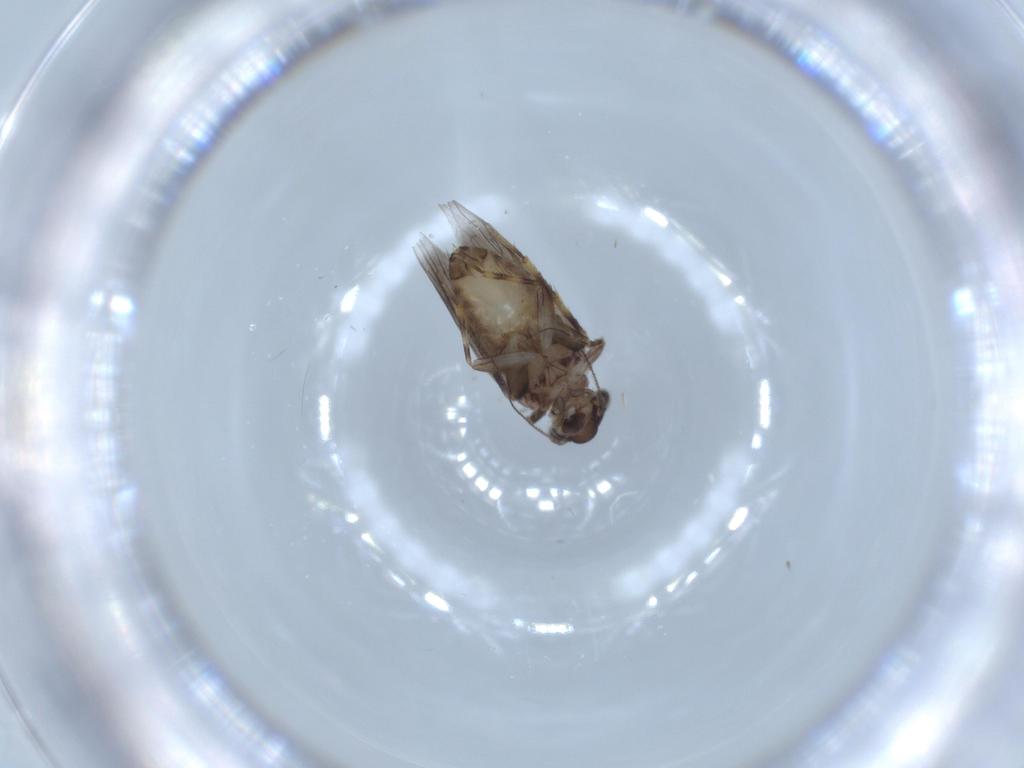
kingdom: Animalia
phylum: Arthropoda
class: Insecta
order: Psocodea
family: Lepidopsocidae
